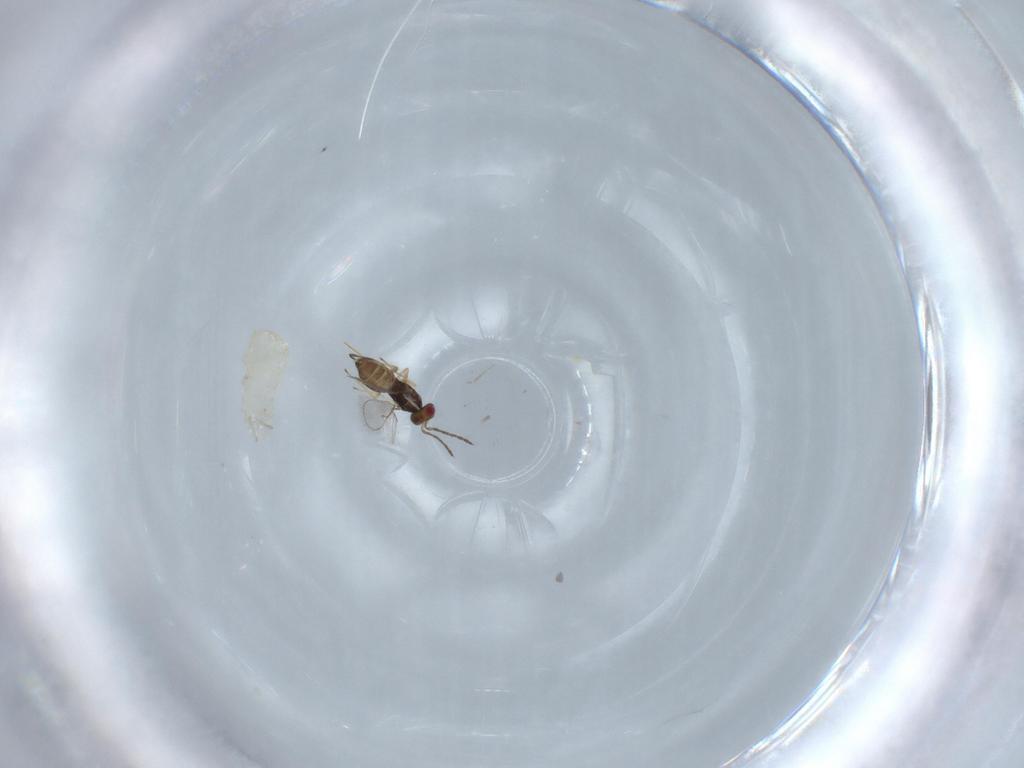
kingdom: Animalia
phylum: Arthropoda
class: Insecta
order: Hymenoptera
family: Eulophidae
